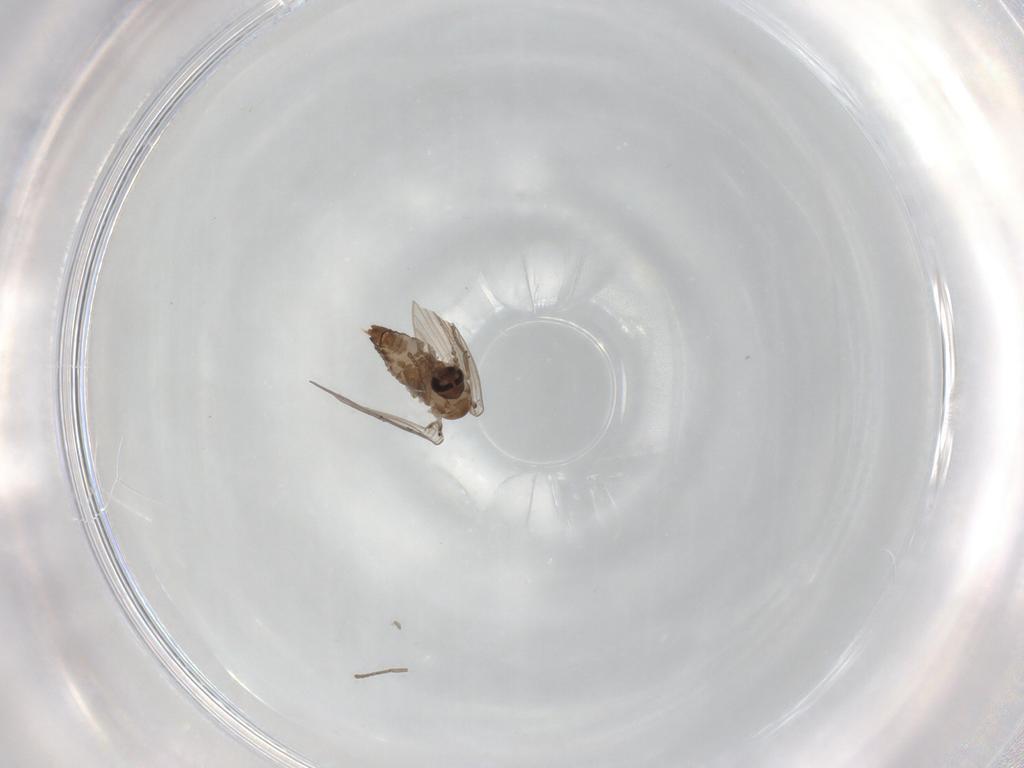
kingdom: Animalia
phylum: Arthropoda
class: Insecta
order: Diptera
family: Psychodidae
